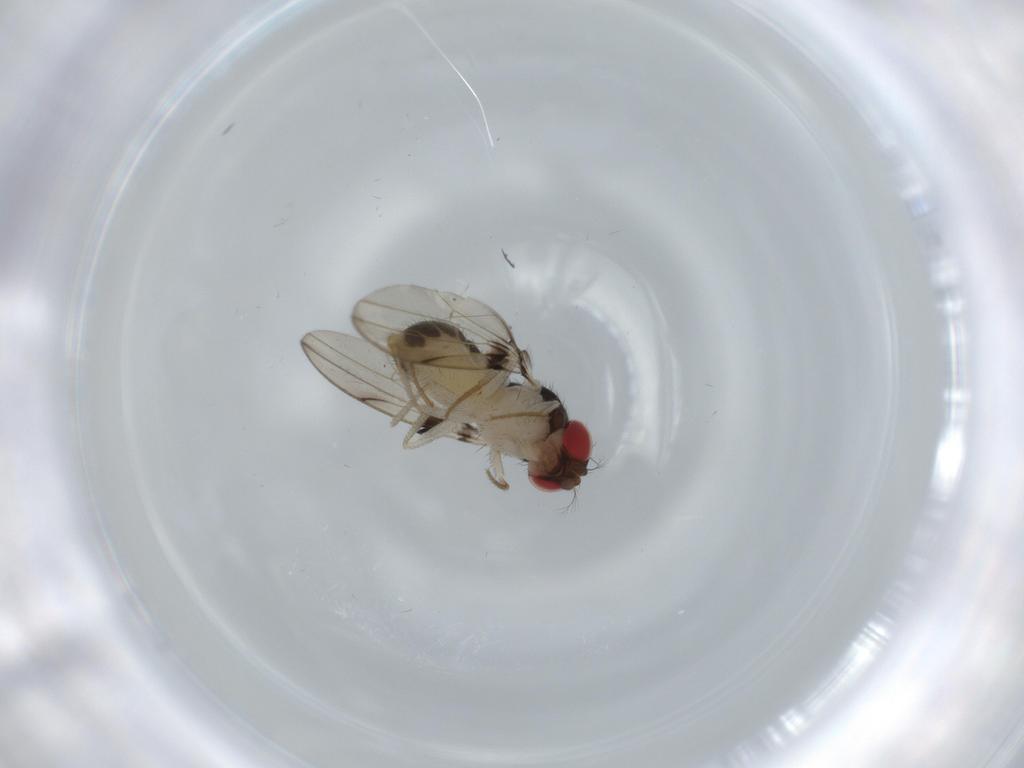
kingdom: Animalia
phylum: Arthropoda
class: Insecta
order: Diptera
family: Drosophilidae
